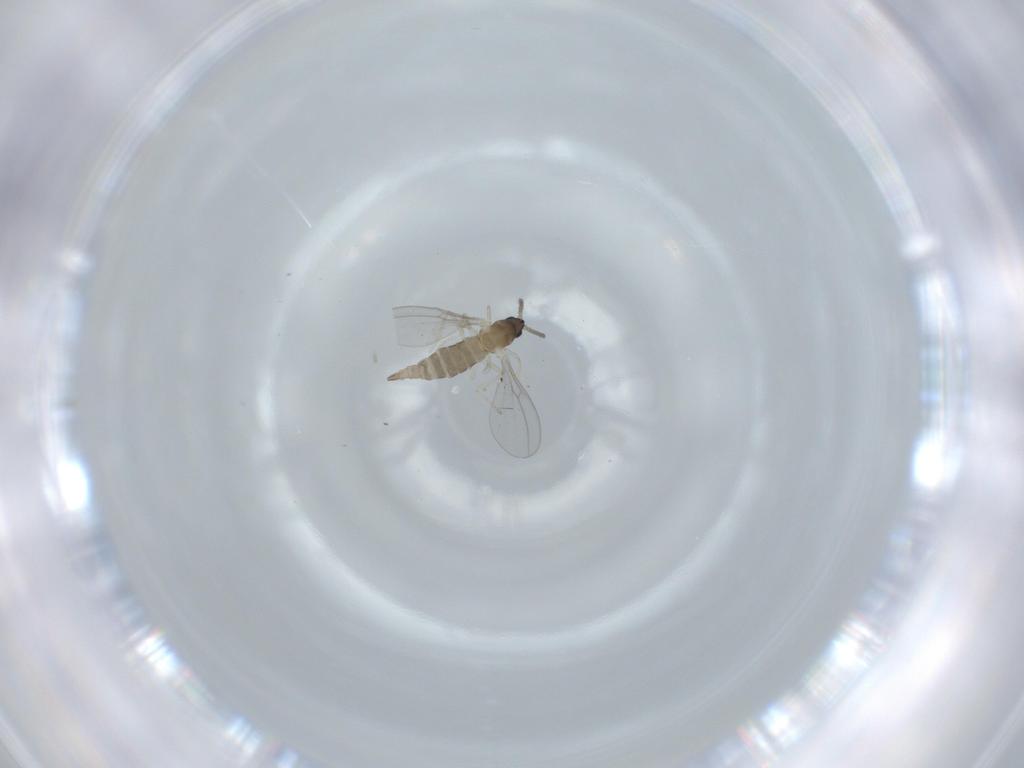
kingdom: Animalia
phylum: Arthropoda
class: Insecta
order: Diptera
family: Cecidomyiidae
